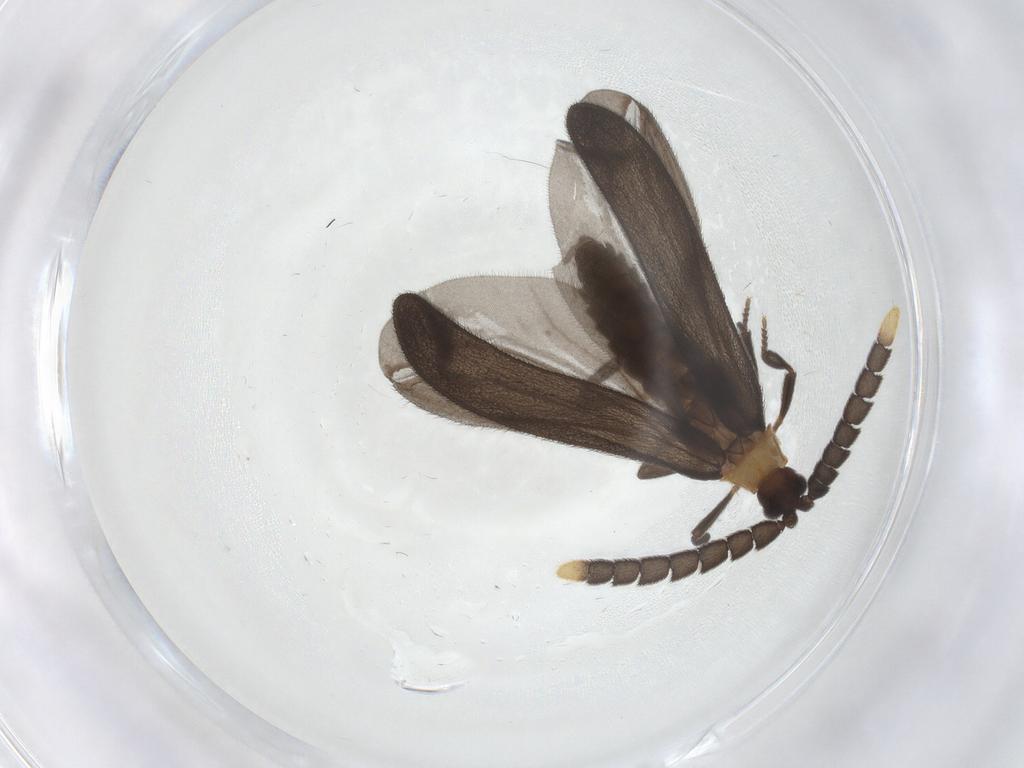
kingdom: Animalia
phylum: Arthropoda
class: Insecta
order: Coleoptera
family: Lycidae
